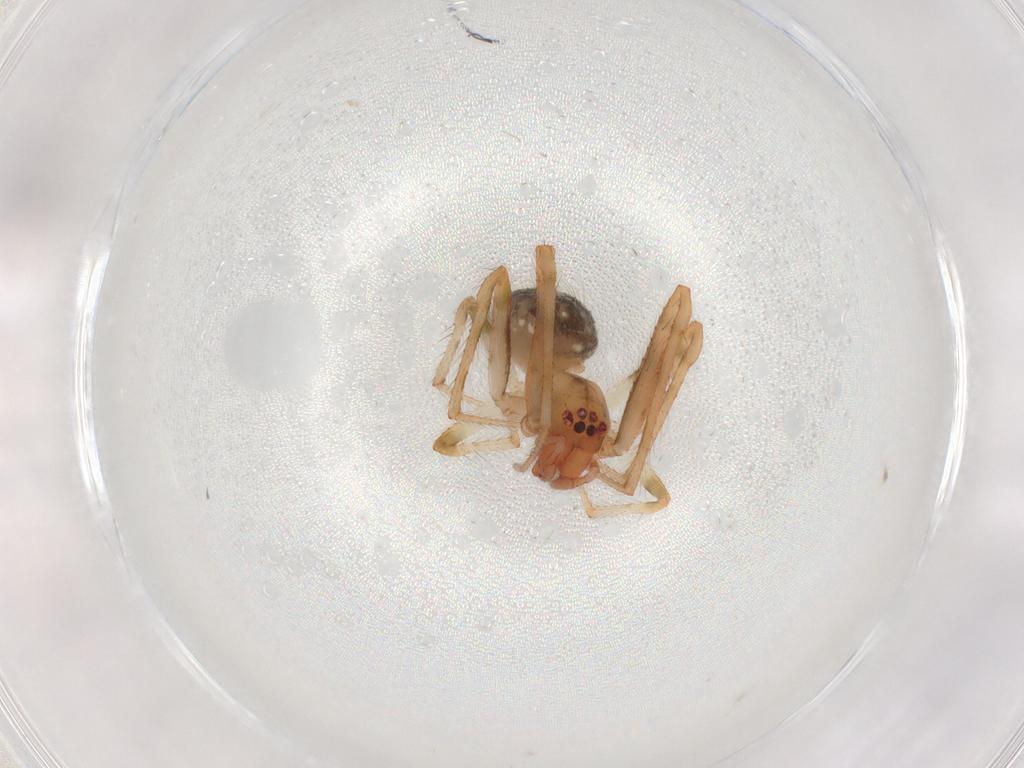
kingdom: Animalia
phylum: Arthropoda
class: Arachnida
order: Araneae
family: Theridiidae
